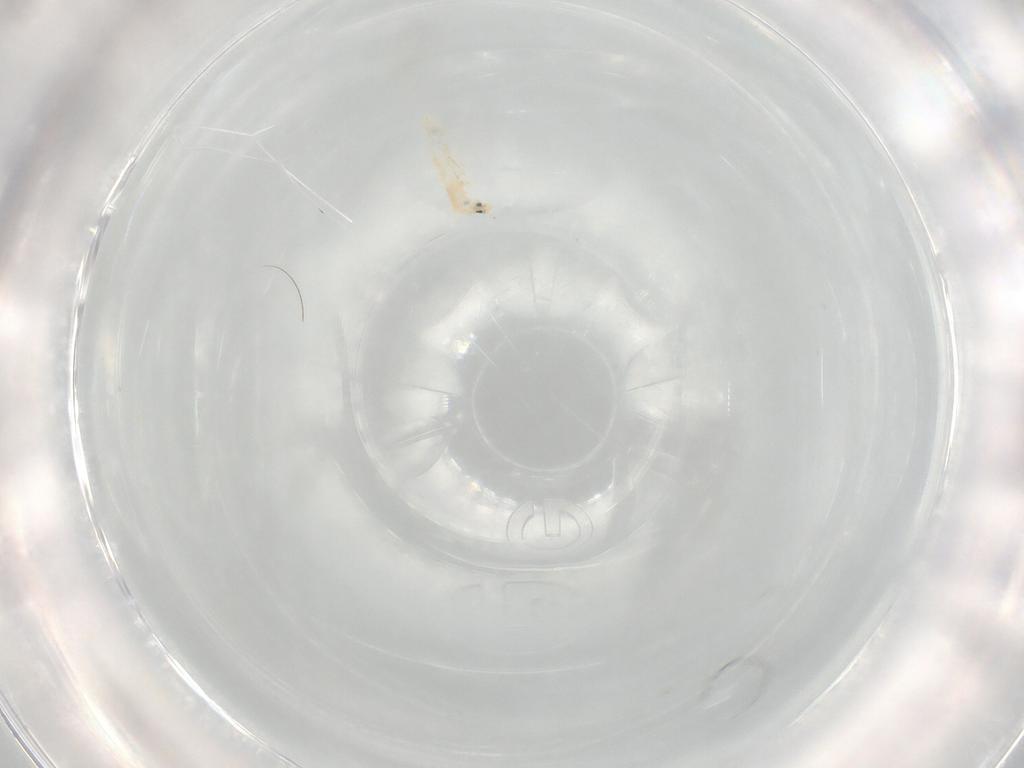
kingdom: Animalia
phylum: Arthropoda
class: Collembola
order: Entomobryomorpha
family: Entomobryidae
